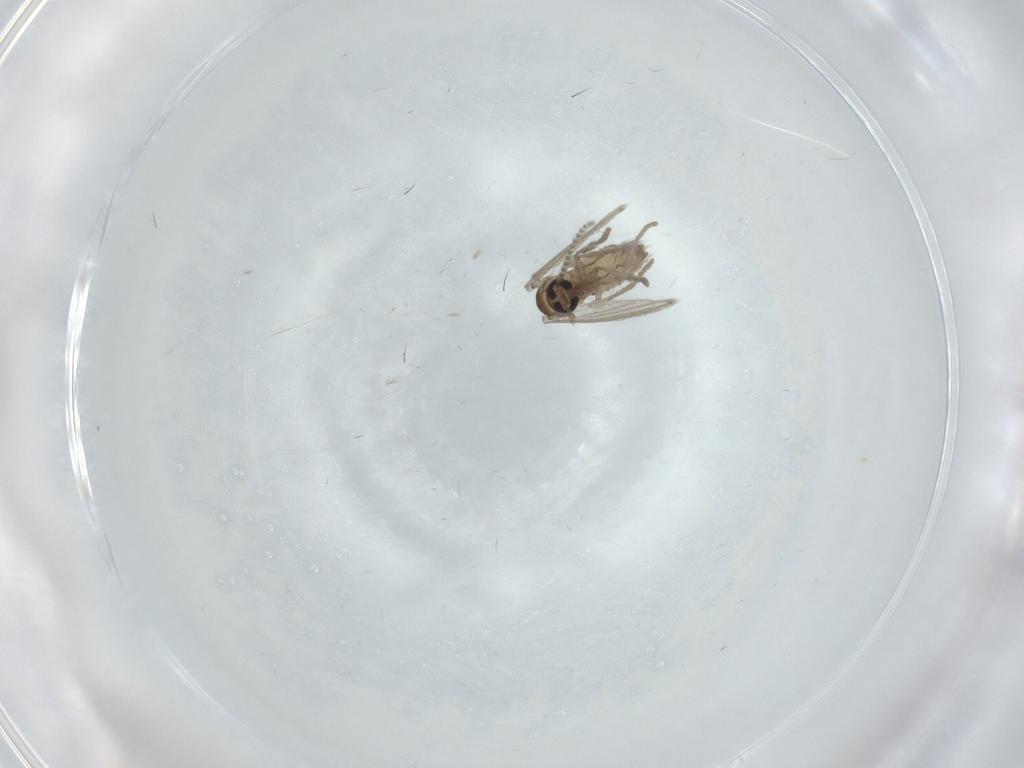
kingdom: Animalia
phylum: Arthropoda
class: Insecta
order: Diptera
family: Psychodidae
